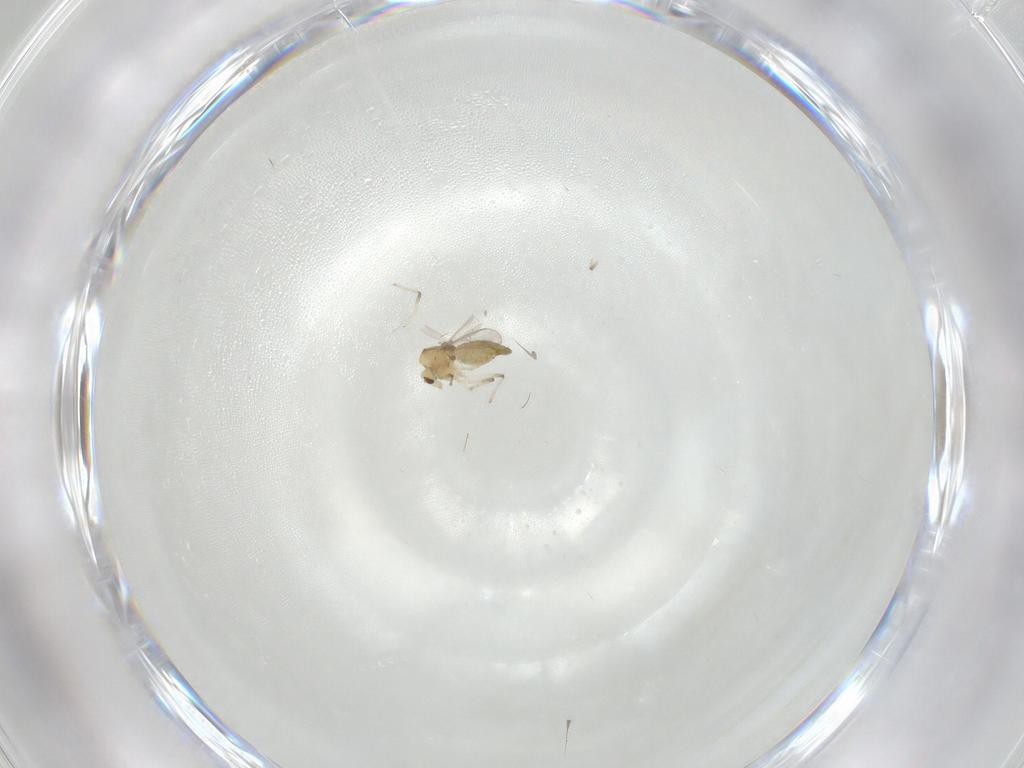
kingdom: Animalia
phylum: Arthropoda
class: Insecta
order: Diptera
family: Chironomidae
